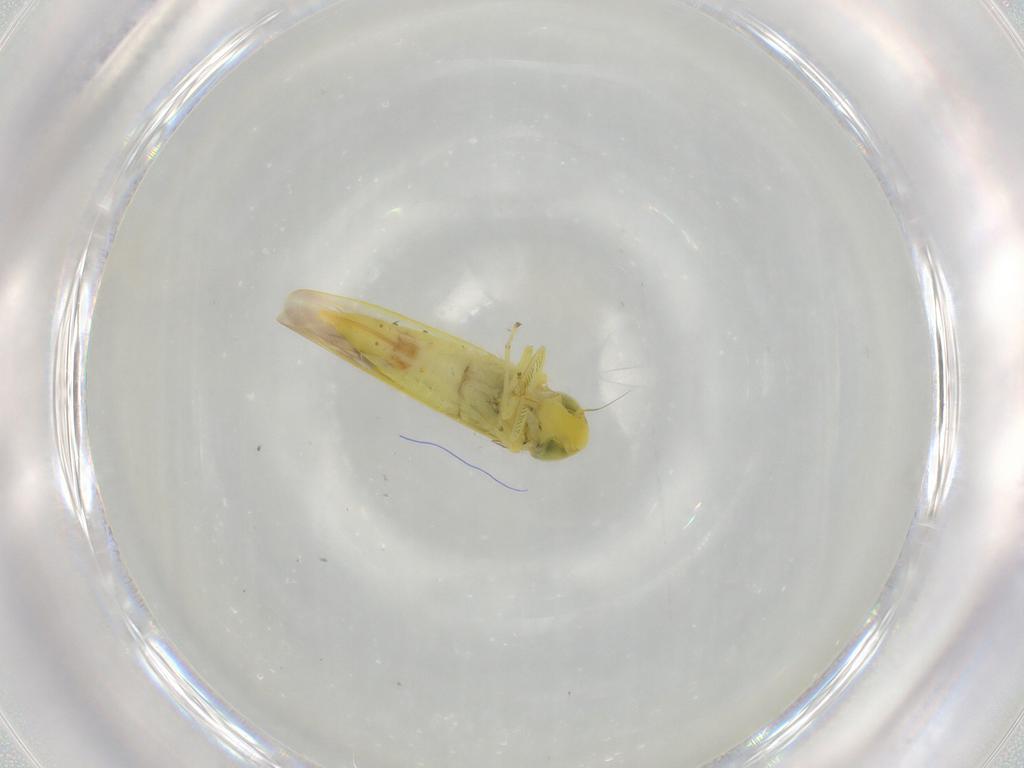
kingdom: Animalia
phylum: Arthropoda
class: Insecta
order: Hemiptera
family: Cicadellidae
